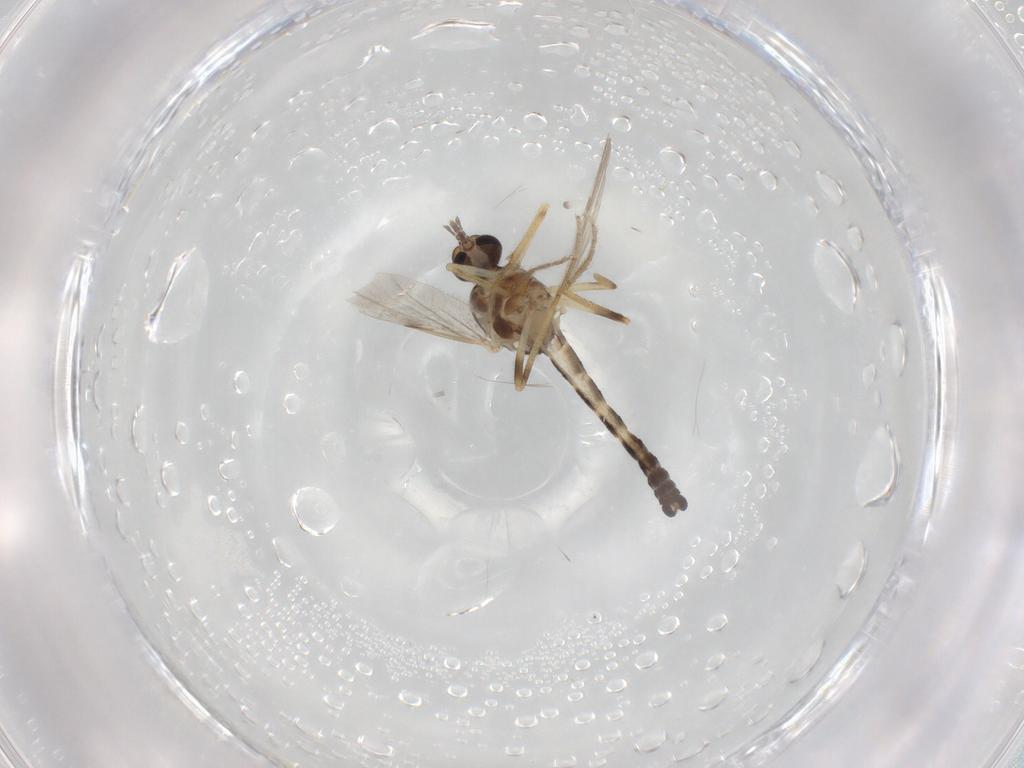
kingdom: Animalia
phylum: Arthropoda
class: Insecta
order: Diptera
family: Ceratopogonidae
